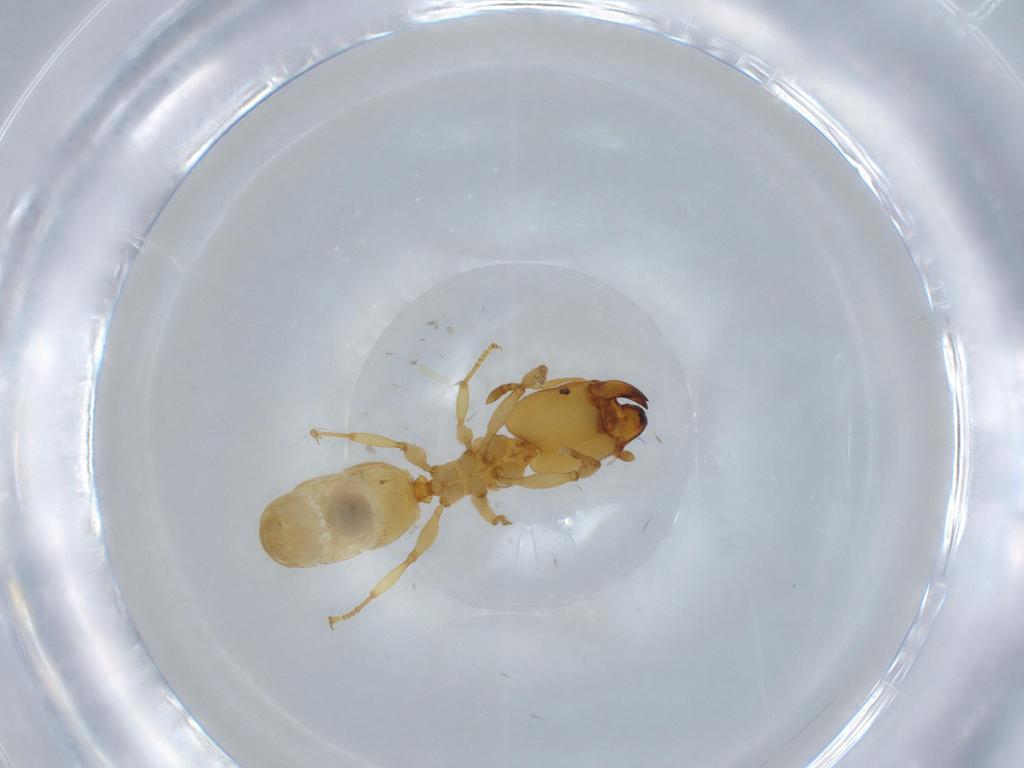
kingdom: Animalia
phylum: Arthropoda
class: Insecta
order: Hymenoptera
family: Formicidae
